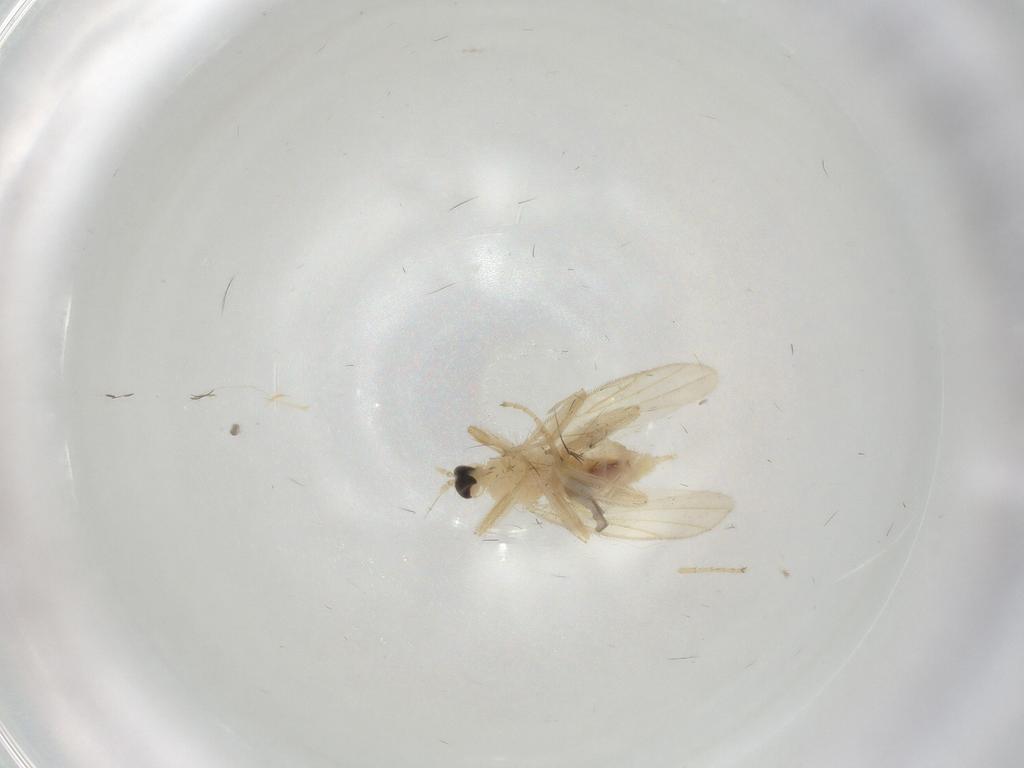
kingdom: Animalia
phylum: Arthropoda
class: Insecta
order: Diptera
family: Hybotidae
